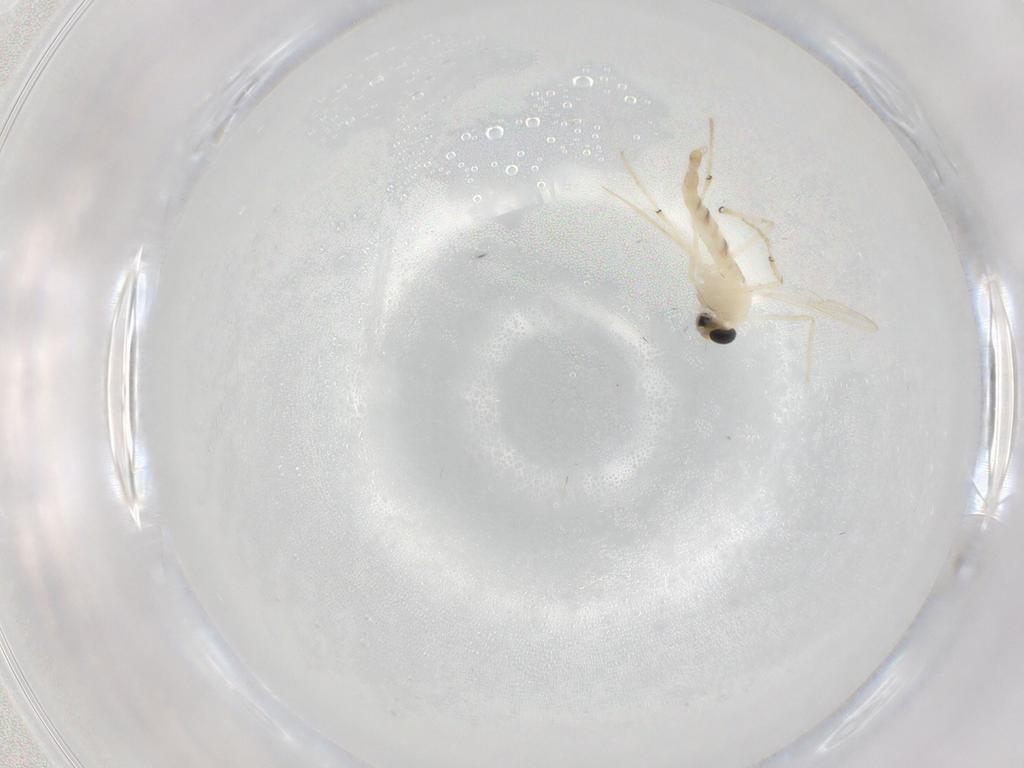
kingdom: Animalia
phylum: Arthropoda
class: Insecta
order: Diptera
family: Chironomidae
